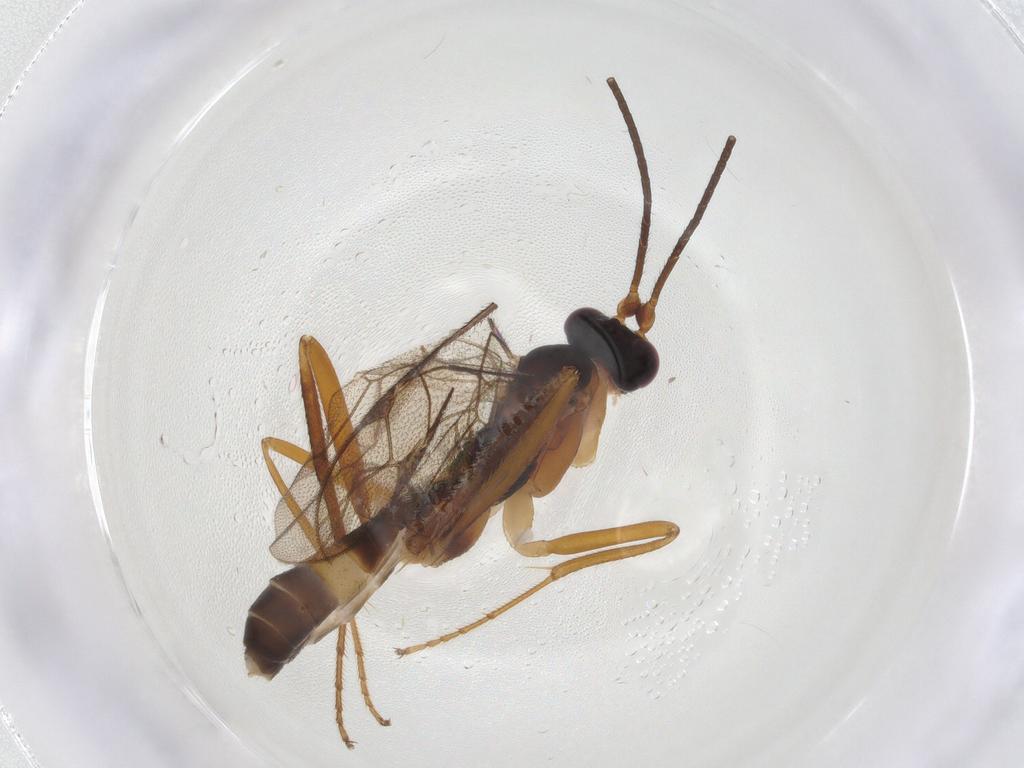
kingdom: Animalia
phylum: Arthropoda
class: Insecta
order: Hymenoptera
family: Ichneumonidae
